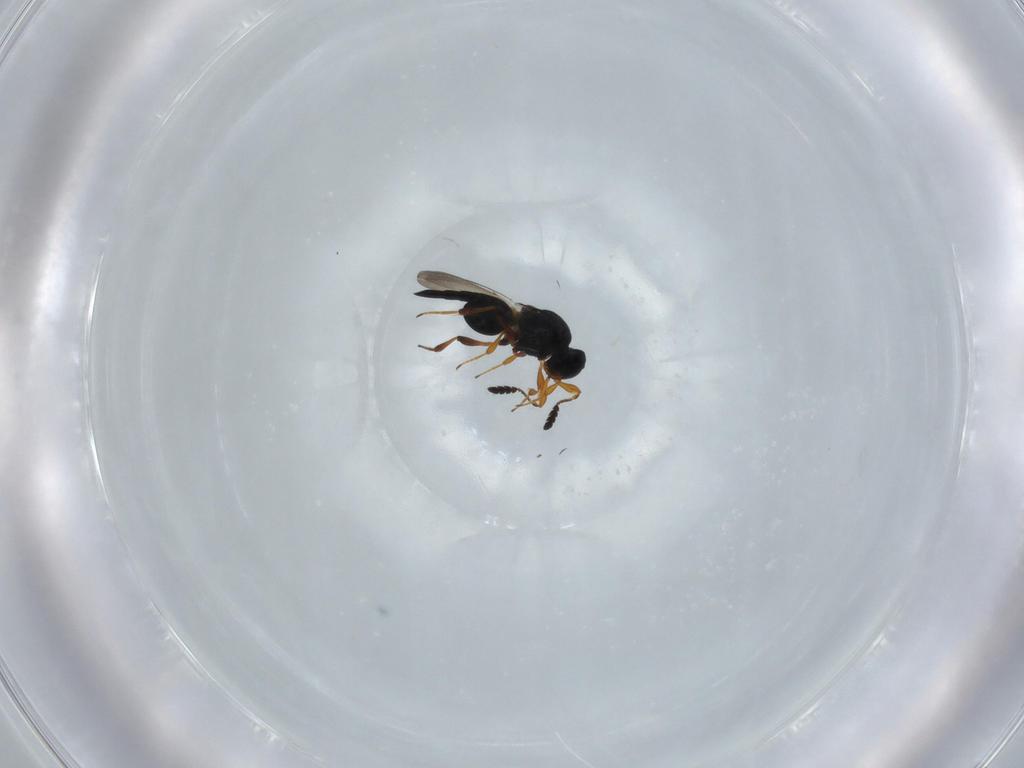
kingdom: Animalia
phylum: Arthropoda
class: Insecta
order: Hymenoptera
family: Platygastridae
